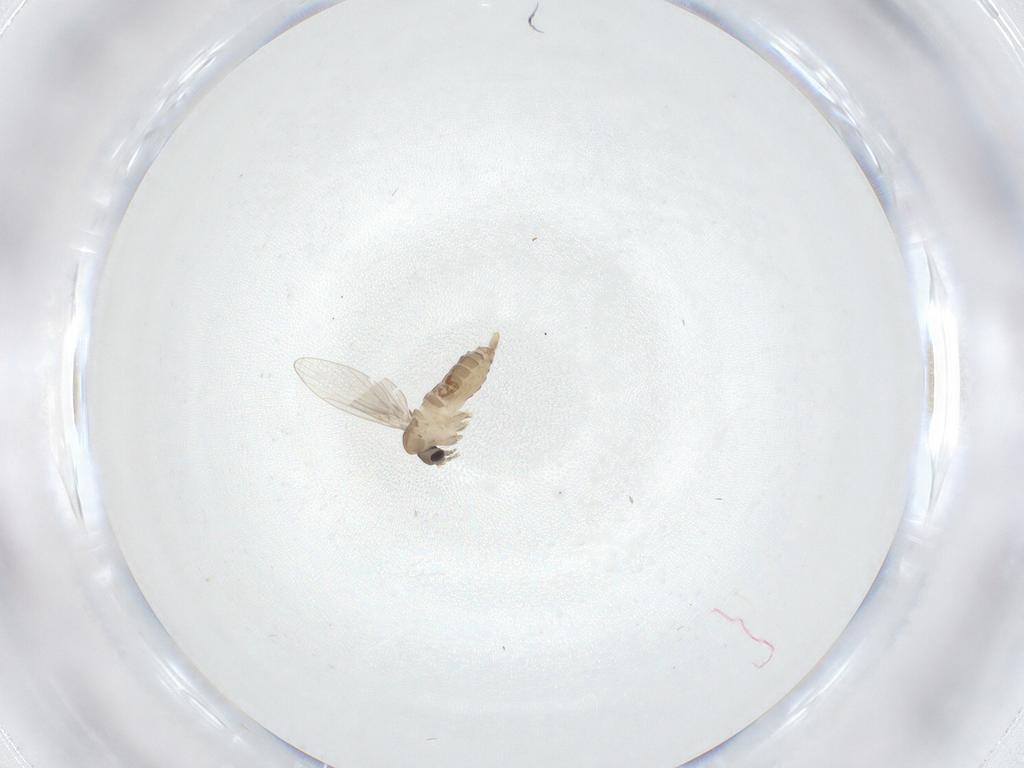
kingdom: Animalia
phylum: Arthropoda
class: Insecta
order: Diptera
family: Psychodidae
